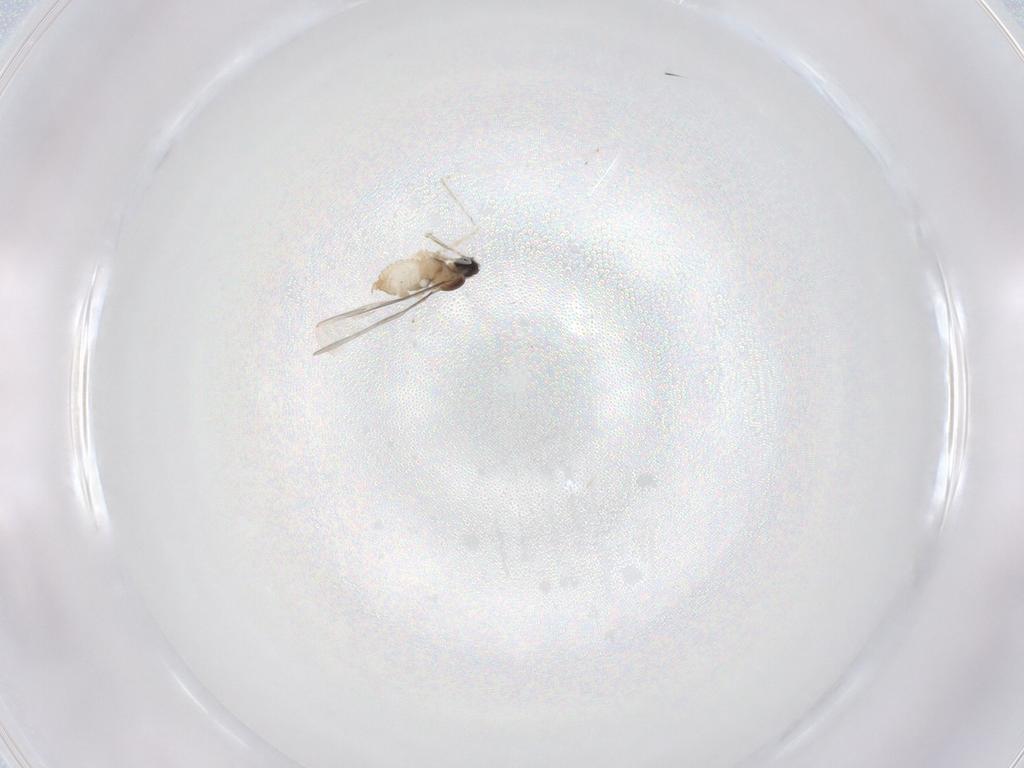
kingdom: Animalia
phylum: Arthropoda
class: Insecta
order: Diptera
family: Cecidomyiidae
